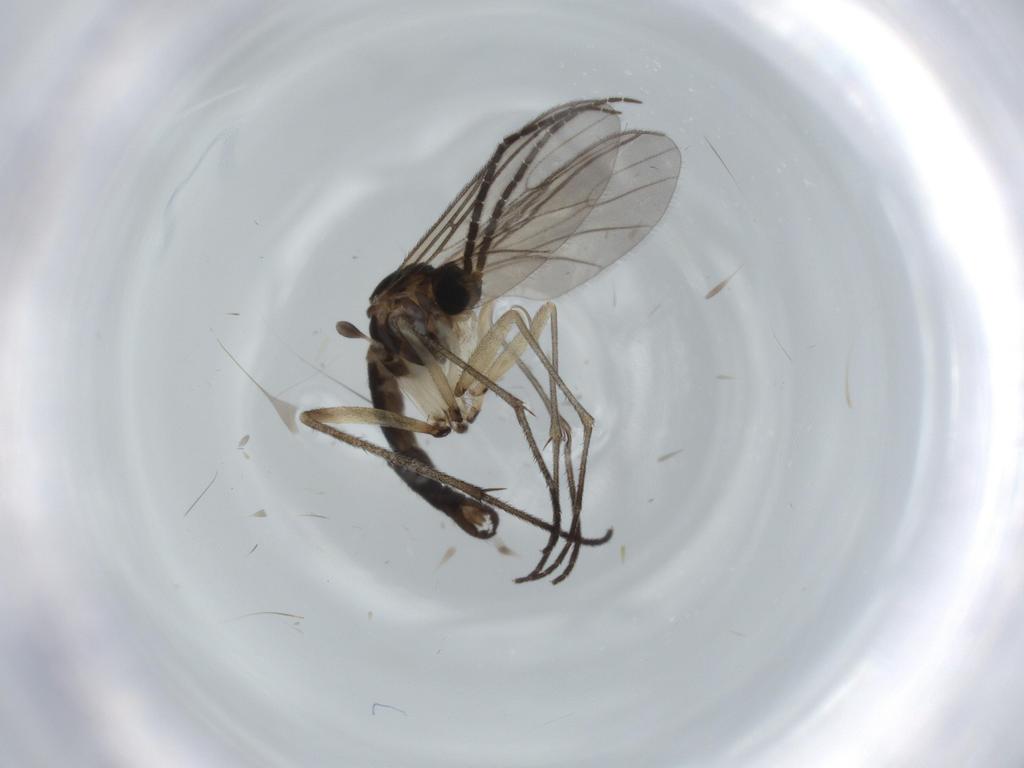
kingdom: Animalia
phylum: Arthropoda
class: Insecta
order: Diptera
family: Sciaridae
